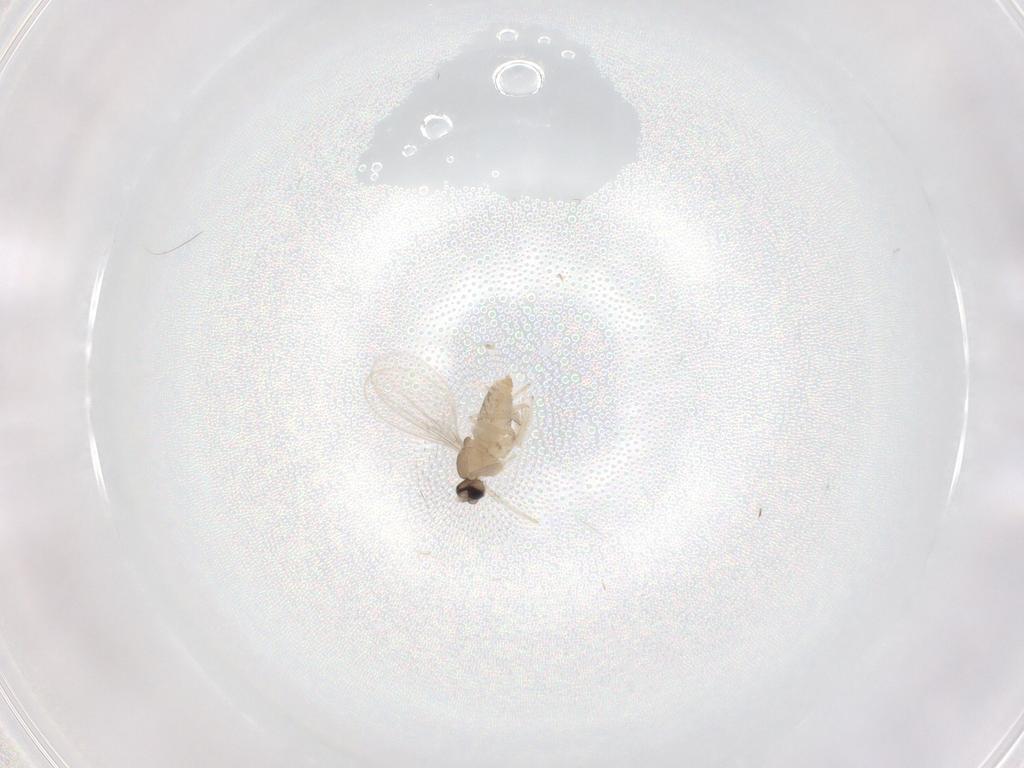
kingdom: Animalia
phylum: Arthropoda
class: Insecta
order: Diptera
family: Cecidomyiidae
